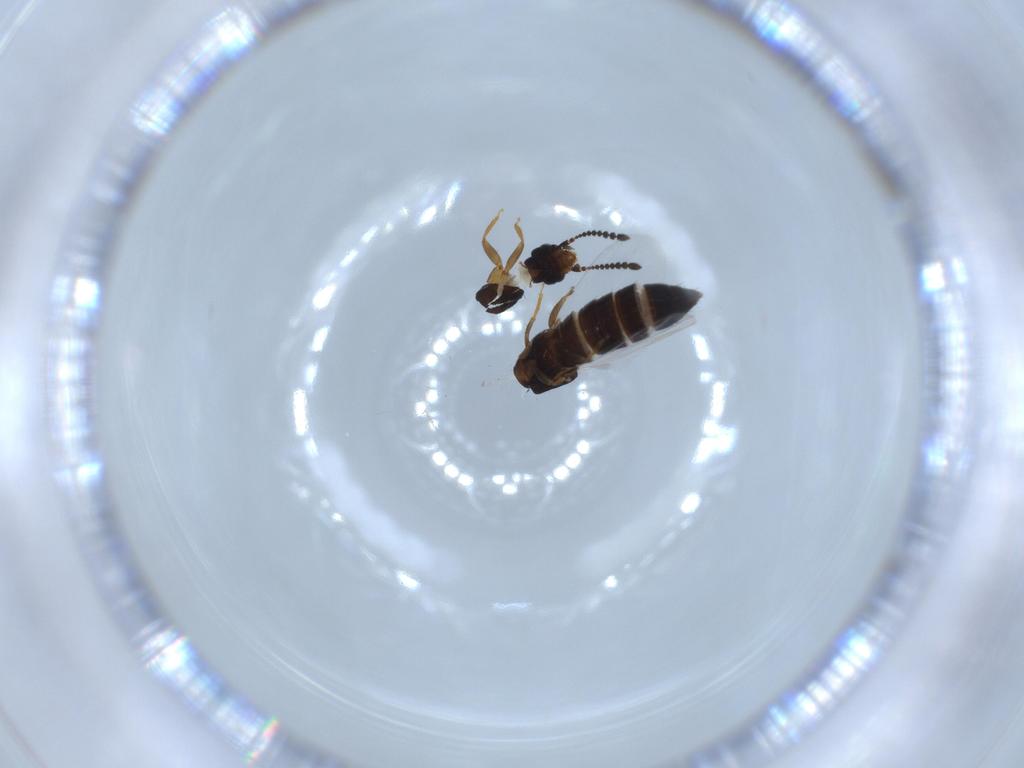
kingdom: Animalia
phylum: Arthropoda
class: Insecta
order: Coleoptera
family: Staphylinidae
